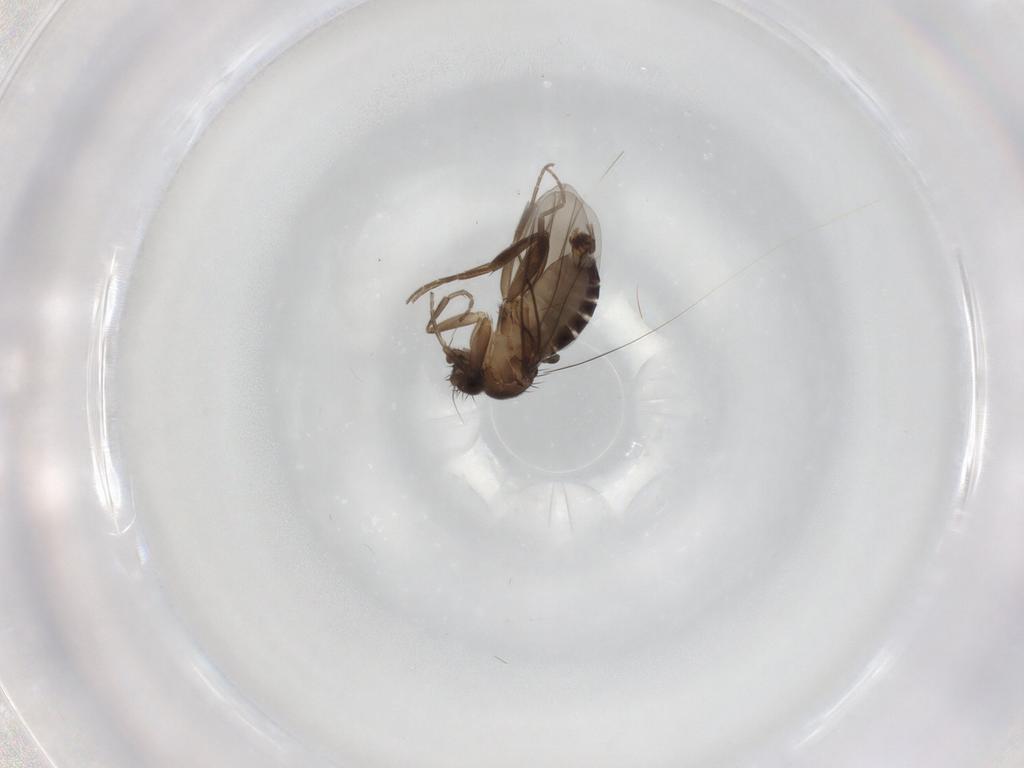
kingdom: Animalia
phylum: Arthropoda
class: Insecta
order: Diptera
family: Phoridae
